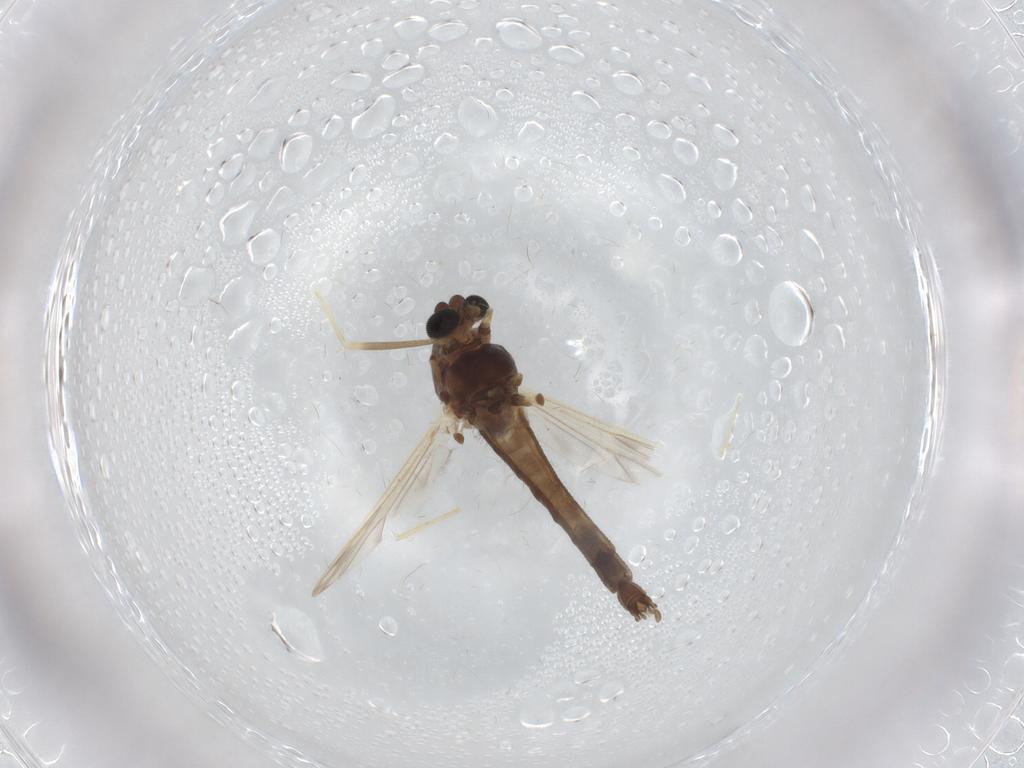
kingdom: Animalia
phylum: Arthropoda
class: Insecta
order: Diptera
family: Chironomidae
